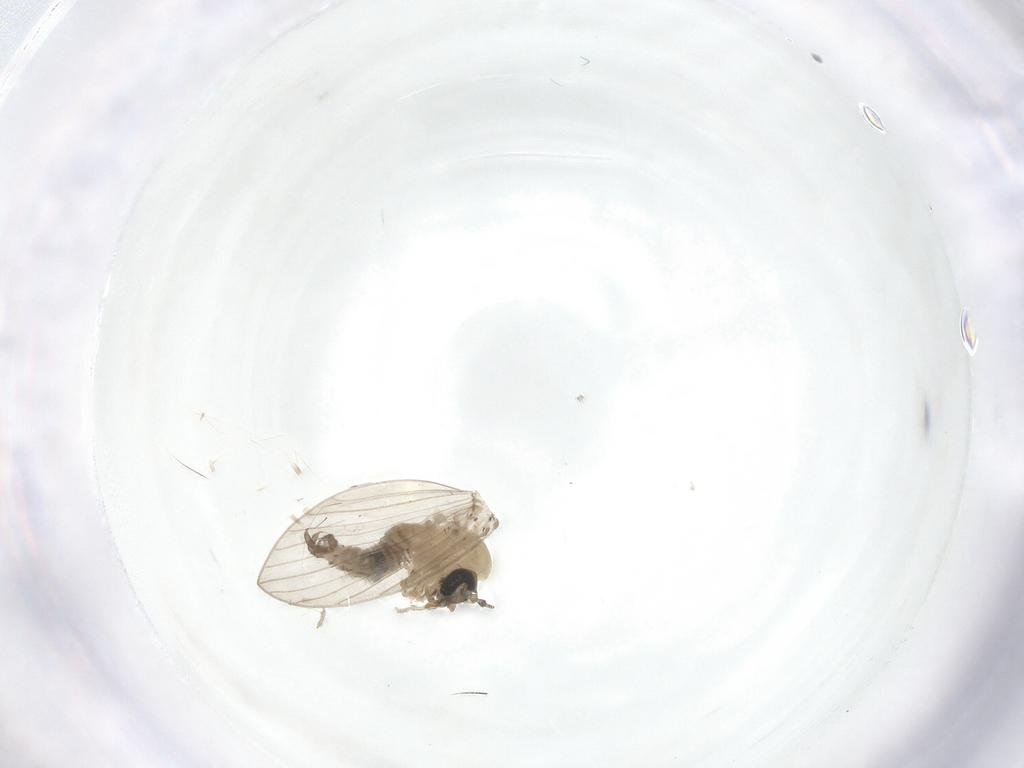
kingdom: Animalia
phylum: Arthropoda
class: Insecta
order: Diptera
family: Psychodidae
